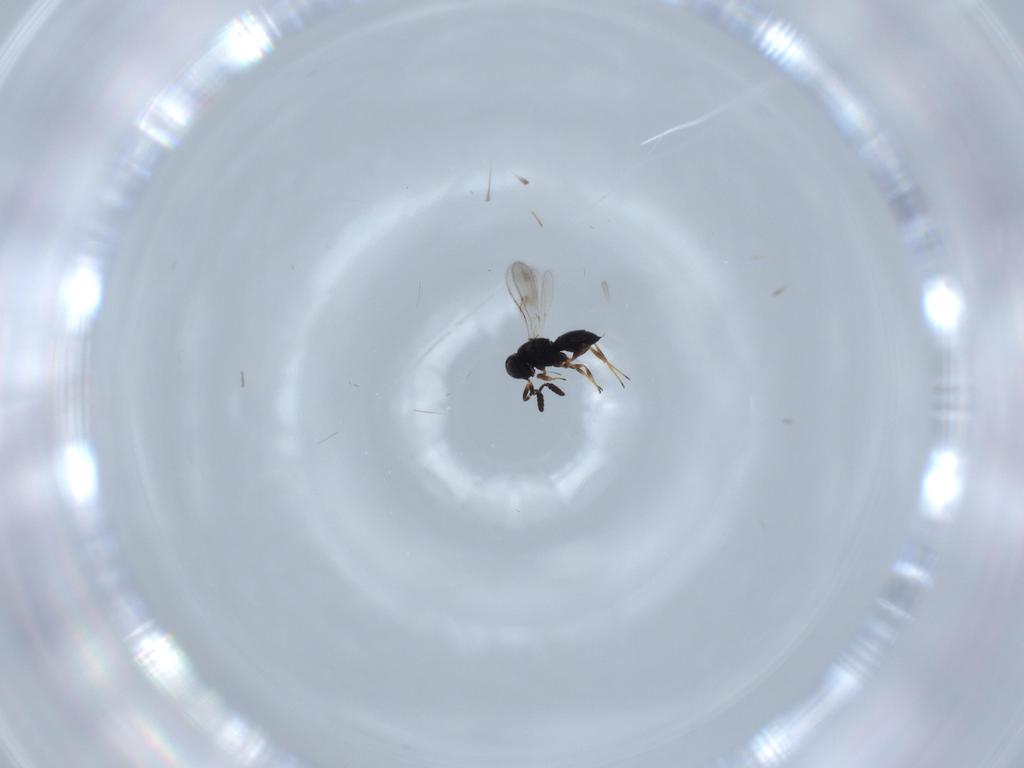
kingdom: Animalia
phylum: Arthropoda
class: Insecta
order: Hymenoptera
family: Scelionidae
